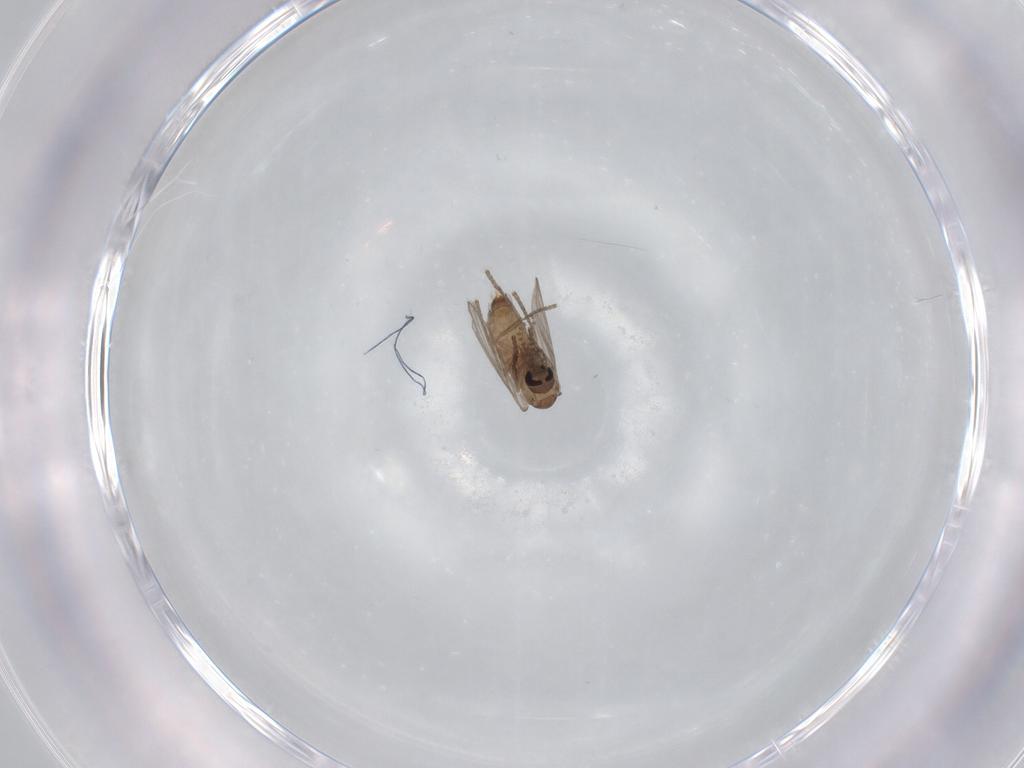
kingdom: Animalia
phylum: Arthropoda
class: Insecta
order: Diptera
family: Psychodidae
